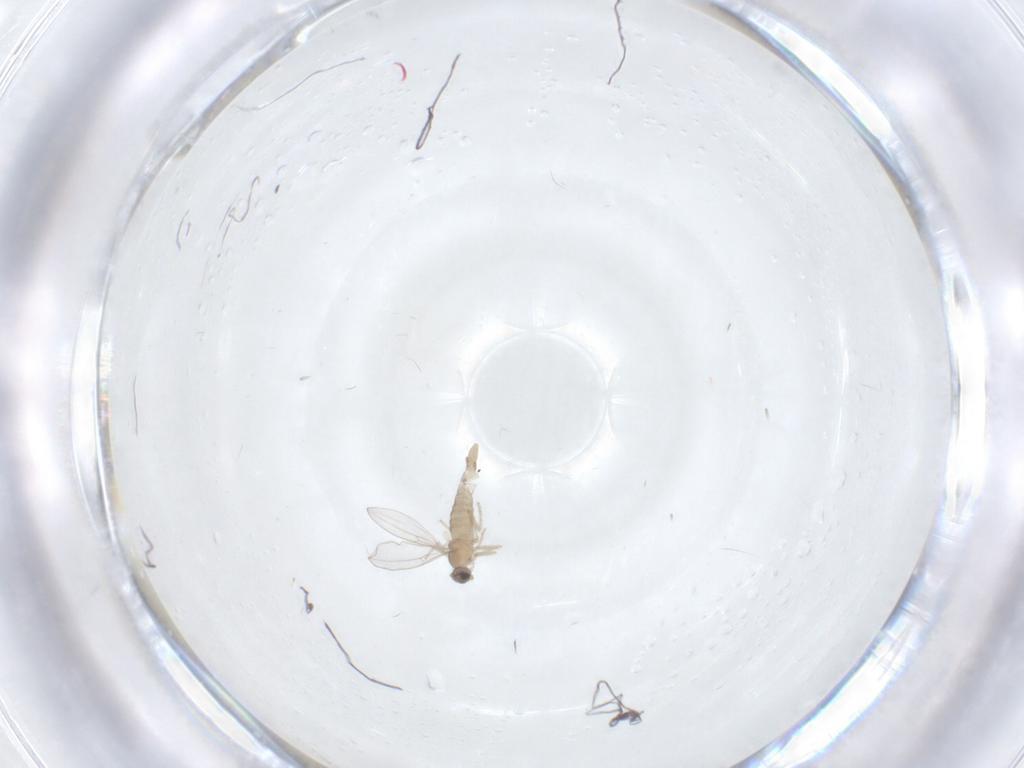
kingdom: Animalia
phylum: Arthropoda
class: Insecta
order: Diptera
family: Cecidomyiidae
